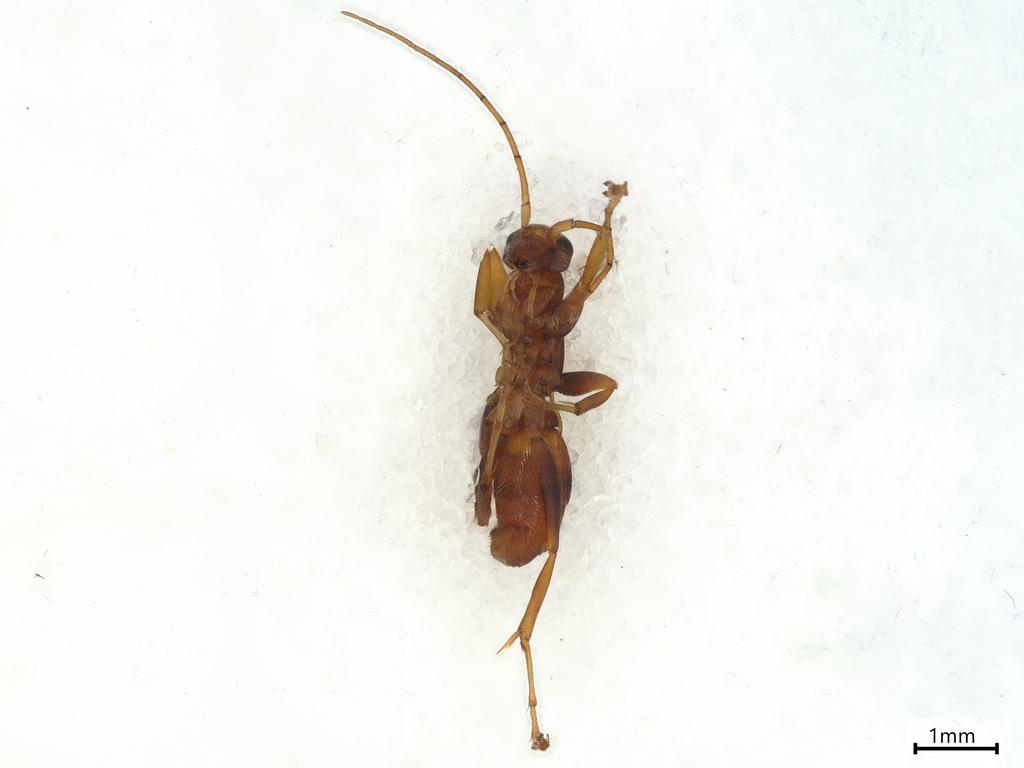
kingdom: Animalia
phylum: Arthropoda
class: Insecta
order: Hymenoptera
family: Rhopalosomatidae
